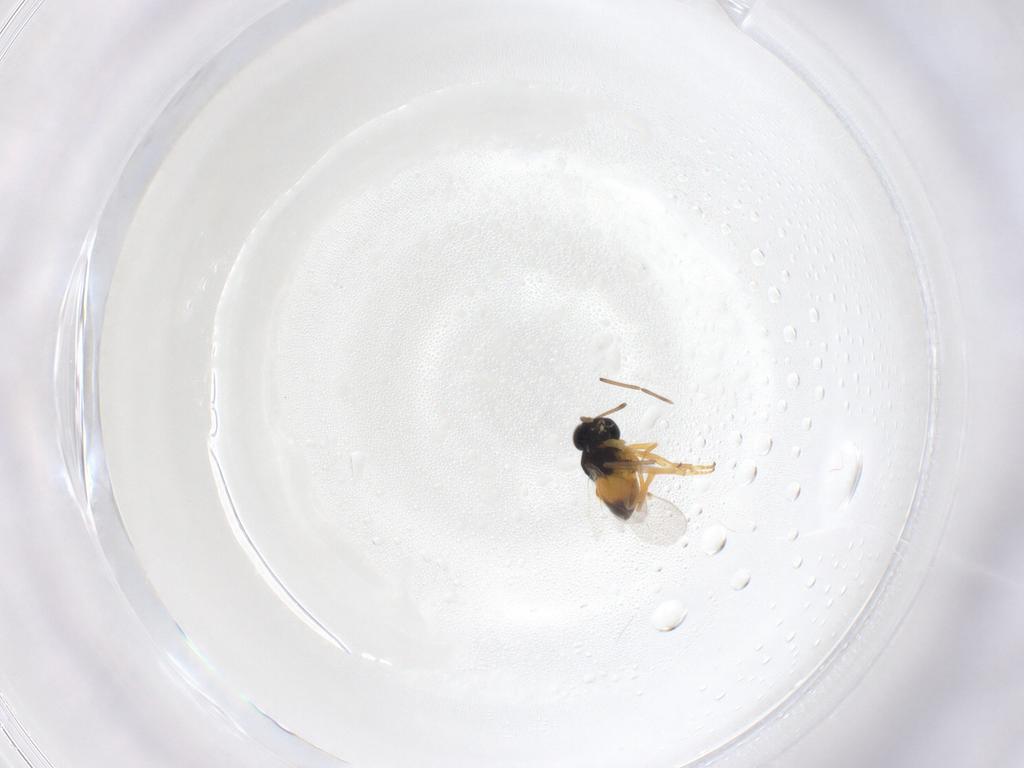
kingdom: Animalia
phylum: Arthropoda
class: Insecta
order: Hymenoptera
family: Encyrtidae
